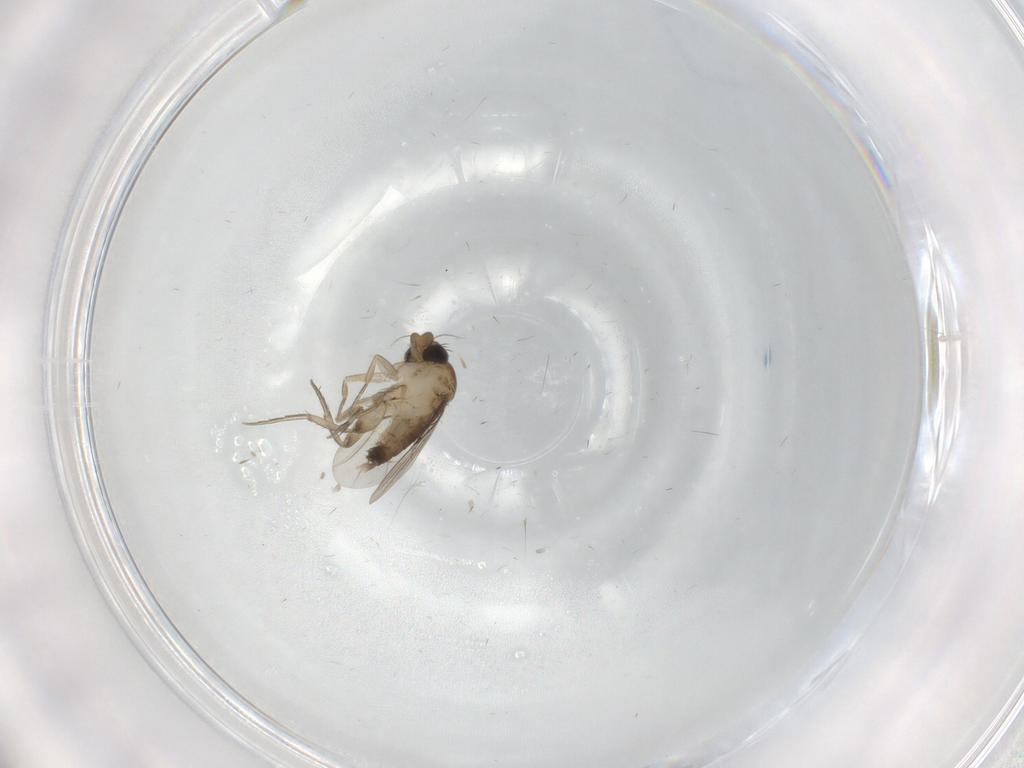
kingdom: Animalia
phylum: Arthropoda
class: Insecta
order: Diptera
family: Phoridae
